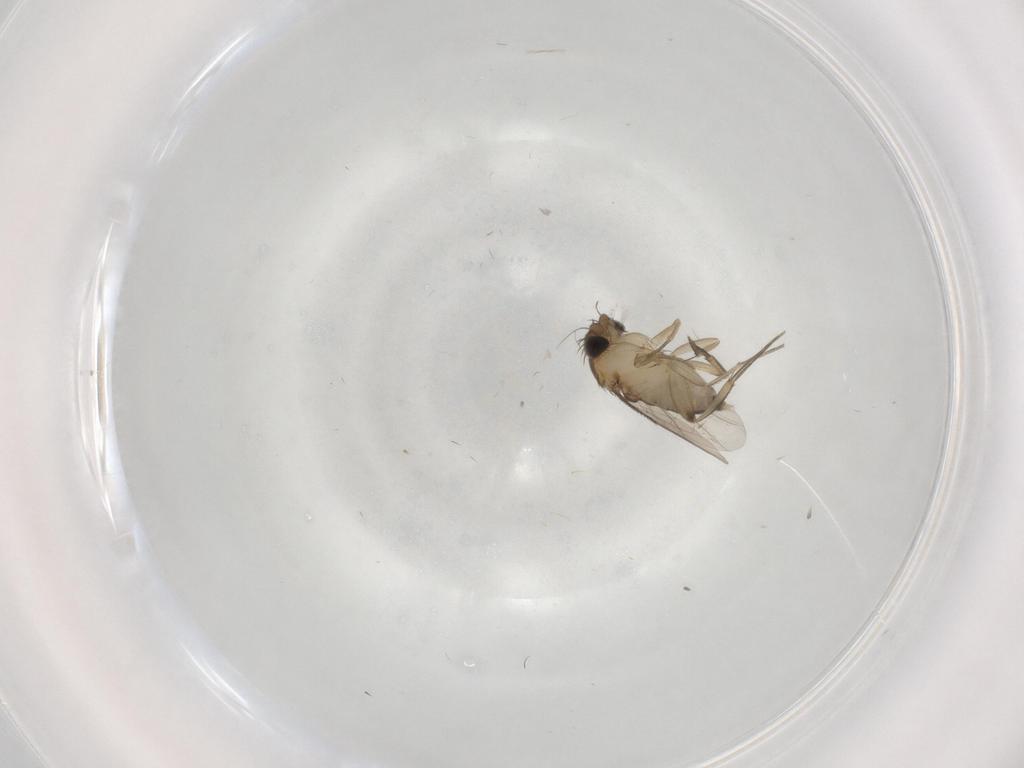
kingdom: Animalia
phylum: Arthropoda
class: Insecta
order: Diptera
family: Phoridae
